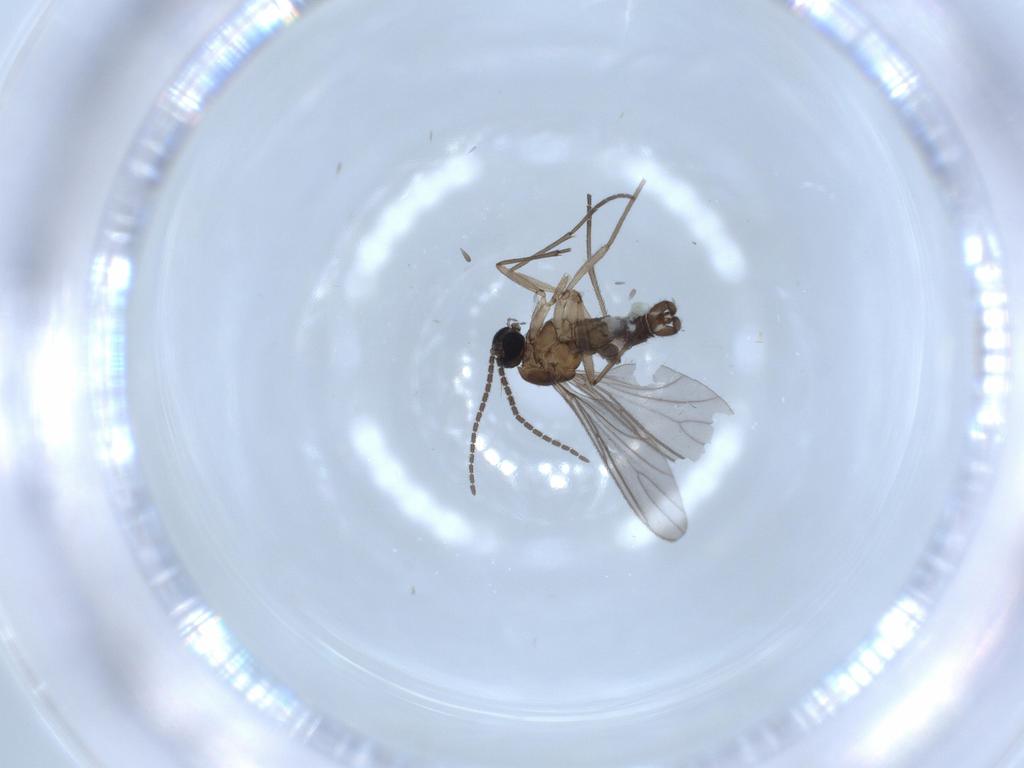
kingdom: Animalia
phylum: Arthropoda
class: Insecta
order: Diptera
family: Sciaridae
